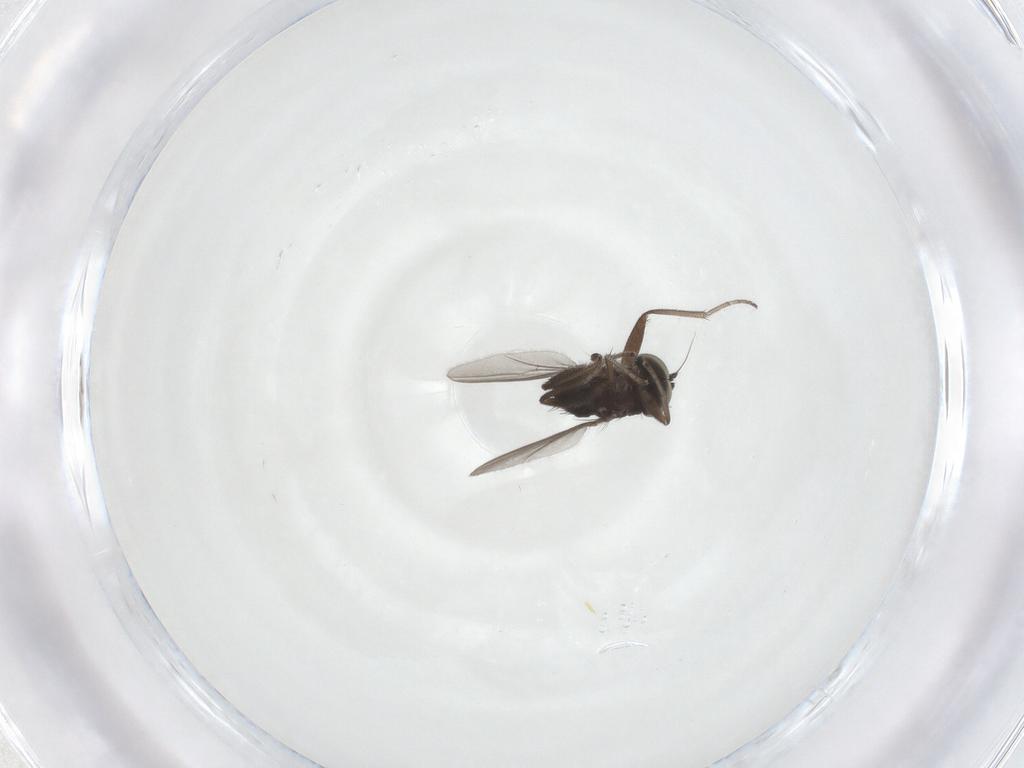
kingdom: Animalia
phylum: Arthropoda
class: Insecta
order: Diptera
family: Dolichopodidae
